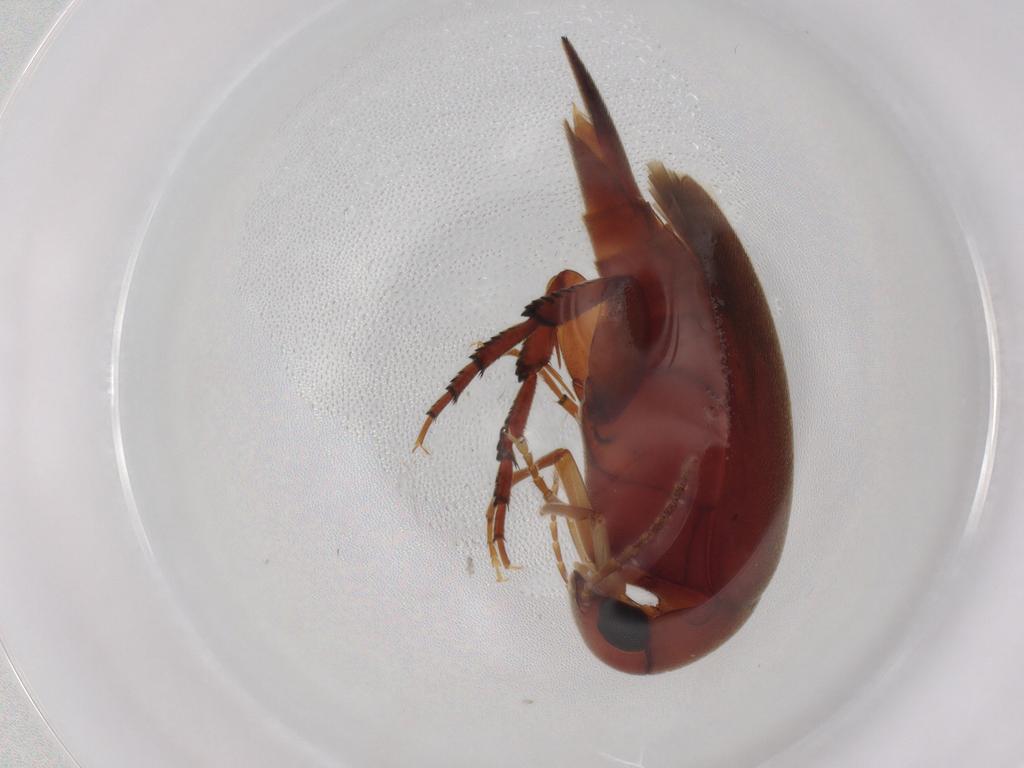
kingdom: Animalia
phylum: Arthropoda
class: Insecta
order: Coleoptera
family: Mordellidae
